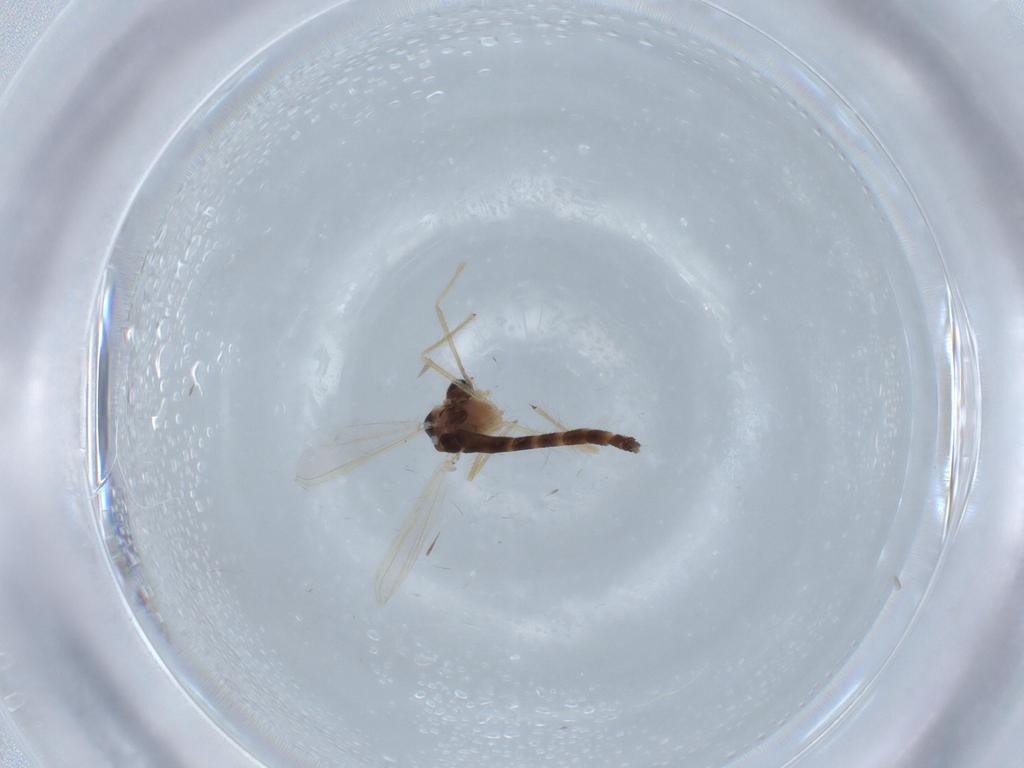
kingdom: Animalia
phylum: Arthropoda
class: Insecta
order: Diptera
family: Chironomidae
